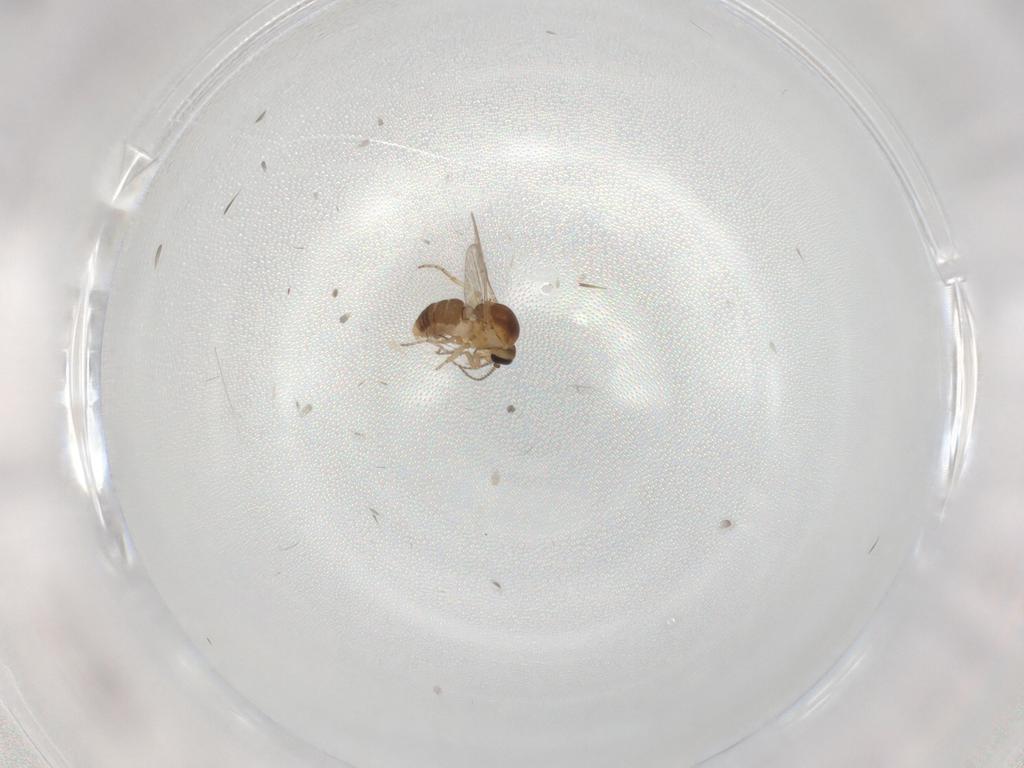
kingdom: Animalia
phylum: Arthropoda
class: Insecta
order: Diptera
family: Ceratopogonidae
